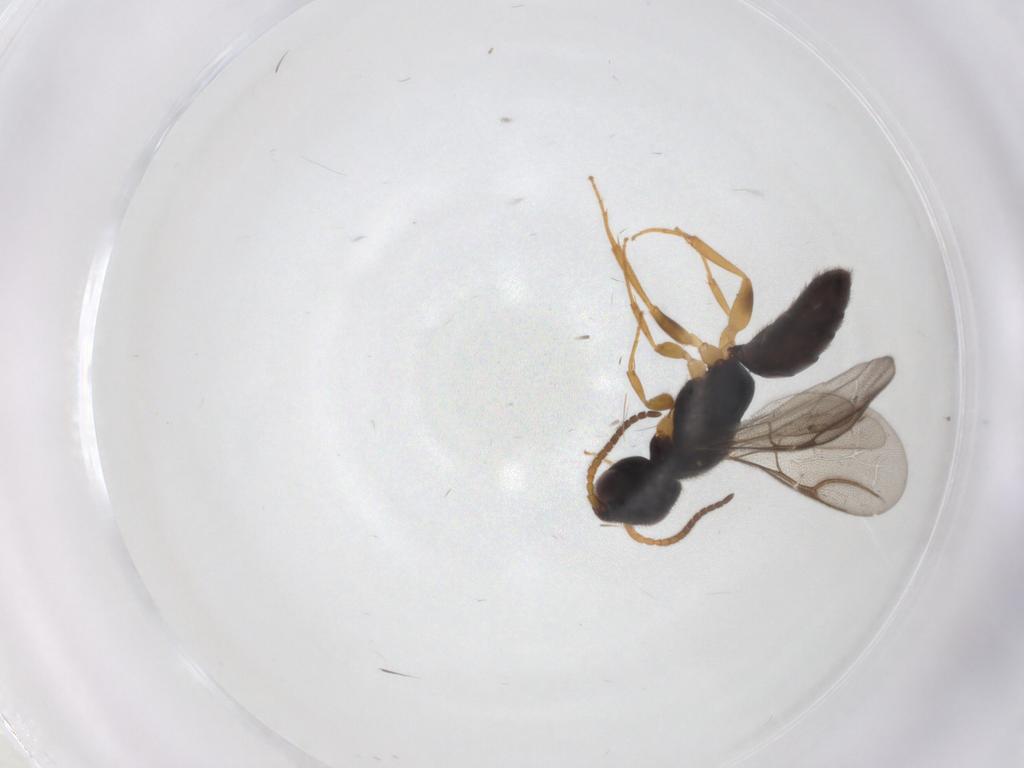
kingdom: Animalia
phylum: Arthropoda
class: Insecta
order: Hymenoptera
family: Bethylidae
